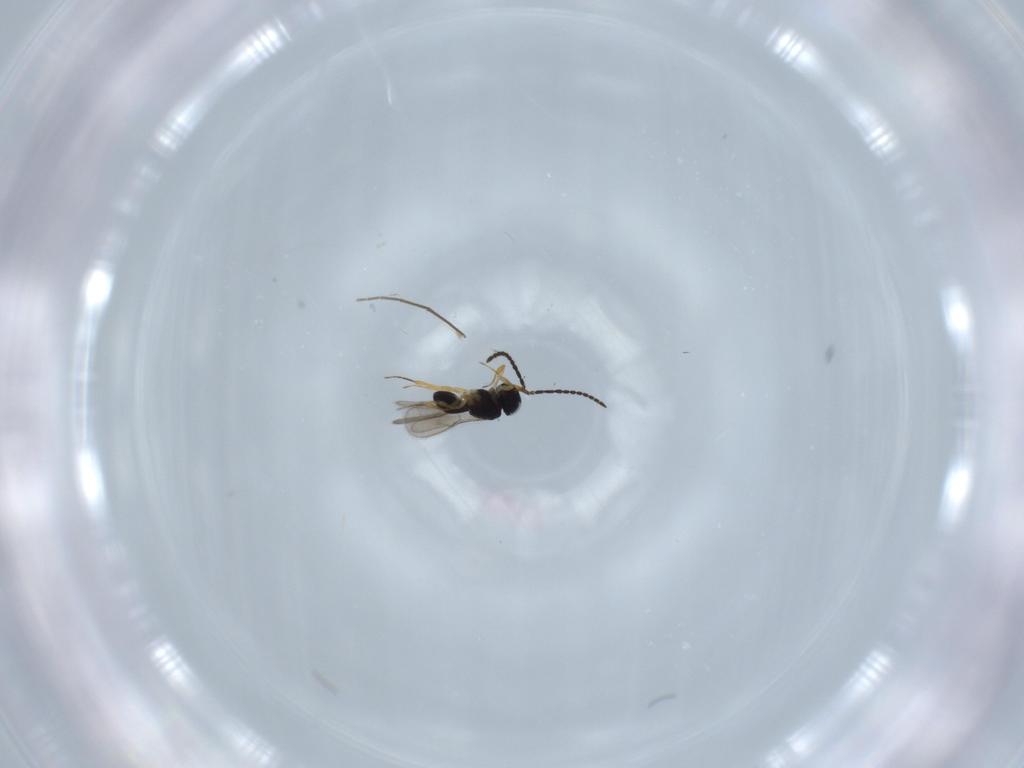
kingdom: Animalia
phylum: Arthropoda
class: Insecta
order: Hymenoptera
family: Scelionidae
